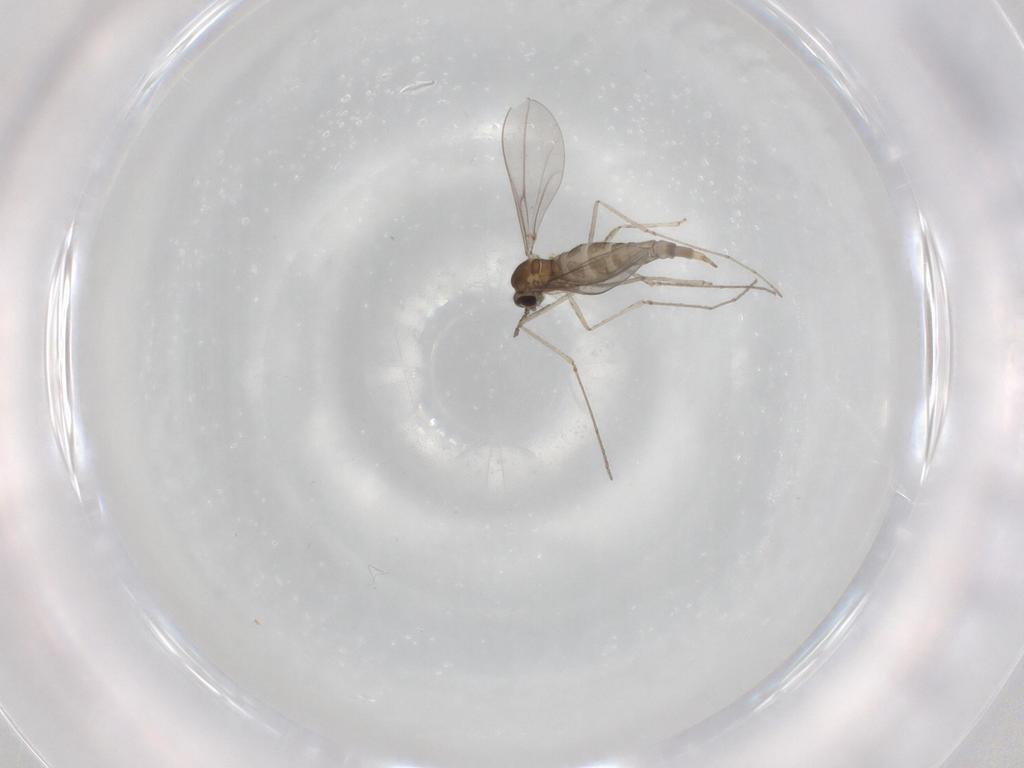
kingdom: Animalia
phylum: Arthropoda
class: Insecta
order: Diptera
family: Cecidomyiidae
